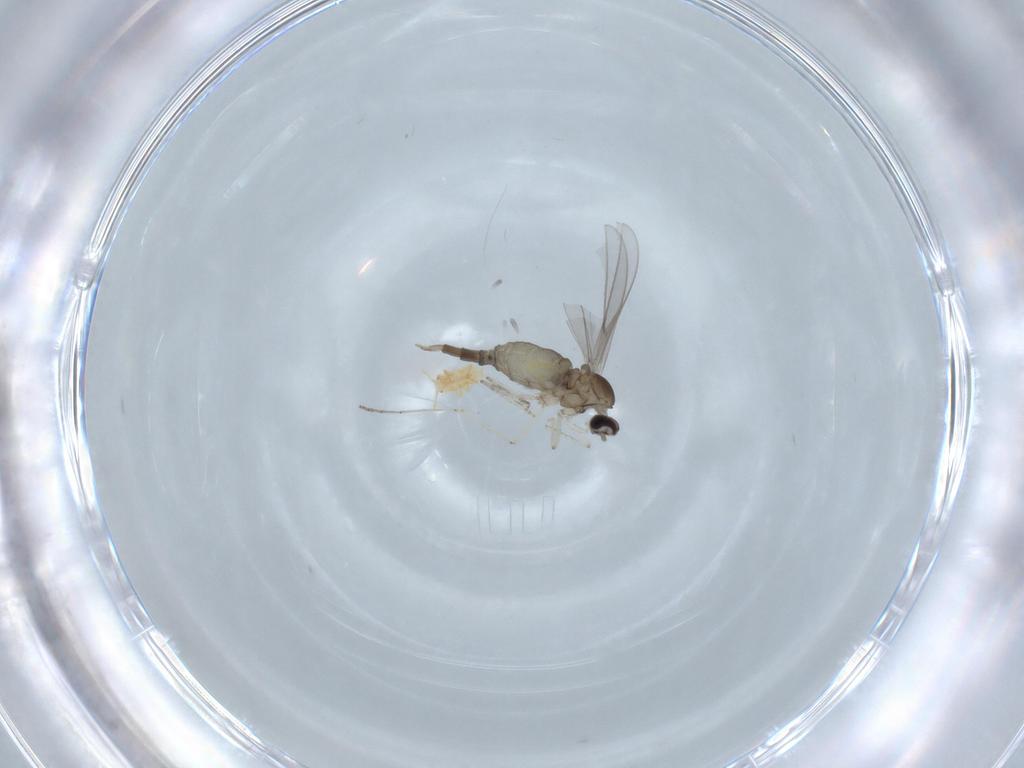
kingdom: Animalia
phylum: Arthropoda
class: Insecta
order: Diptera
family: Cecidomyiidae
